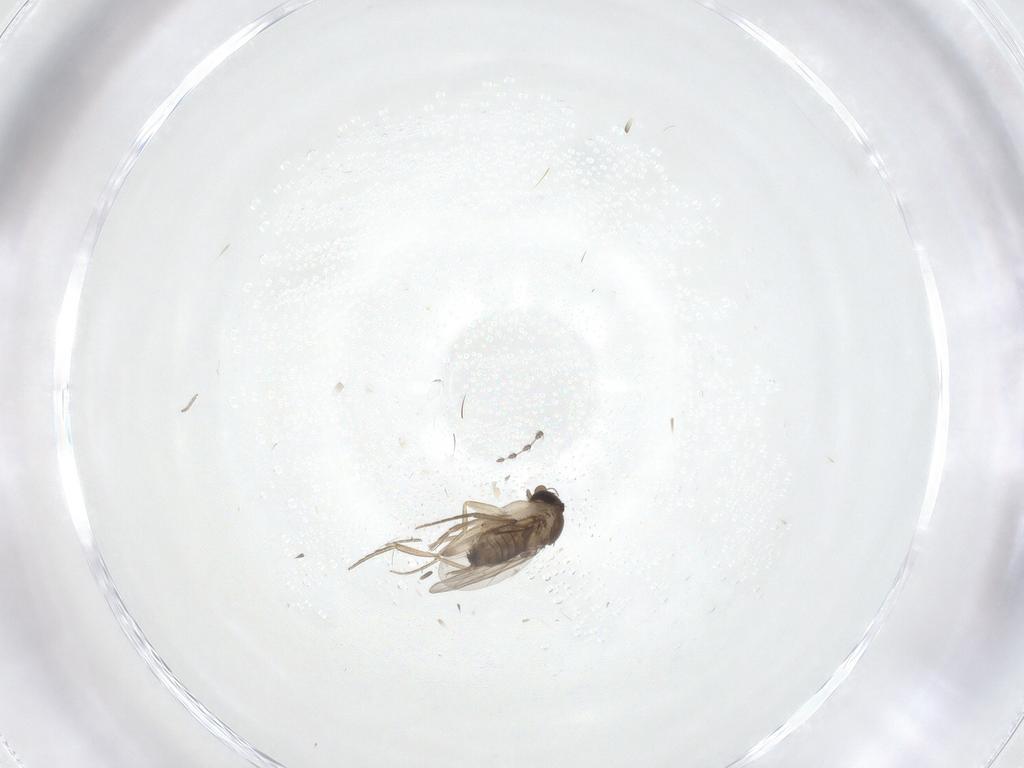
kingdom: Animalia
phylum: Arthropoda
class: Insecta
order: Diptera
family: Phoridae
